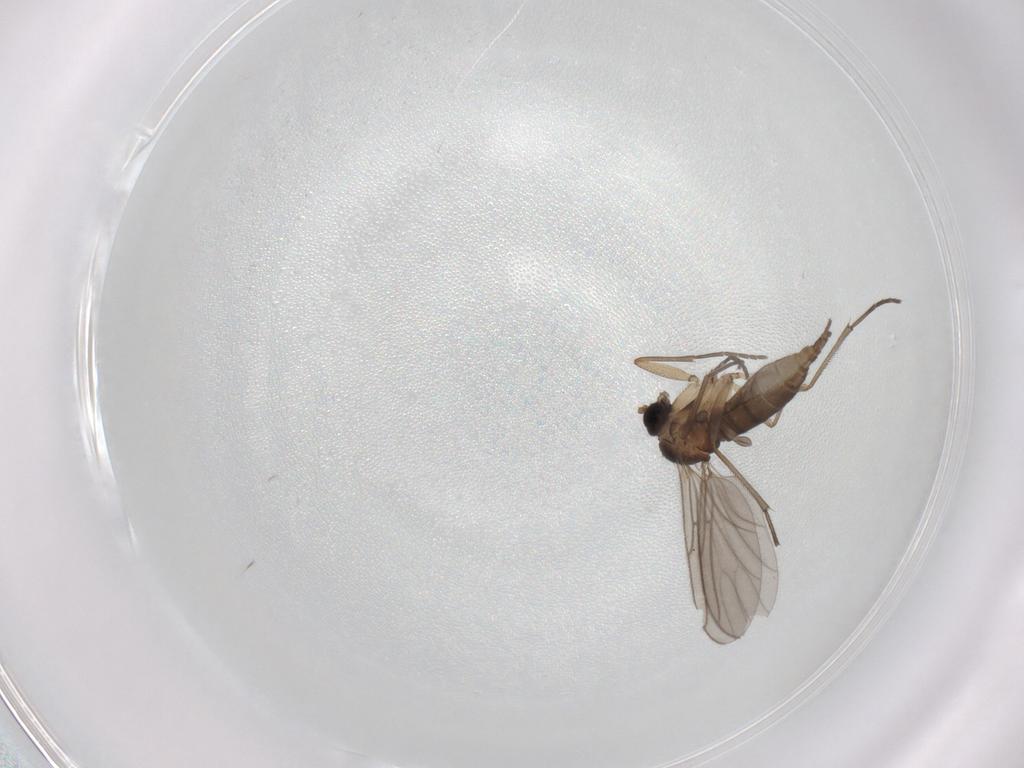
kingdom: Animalia
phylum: Arthropoda
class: Insecta
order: Diptera
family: Sciaridae
